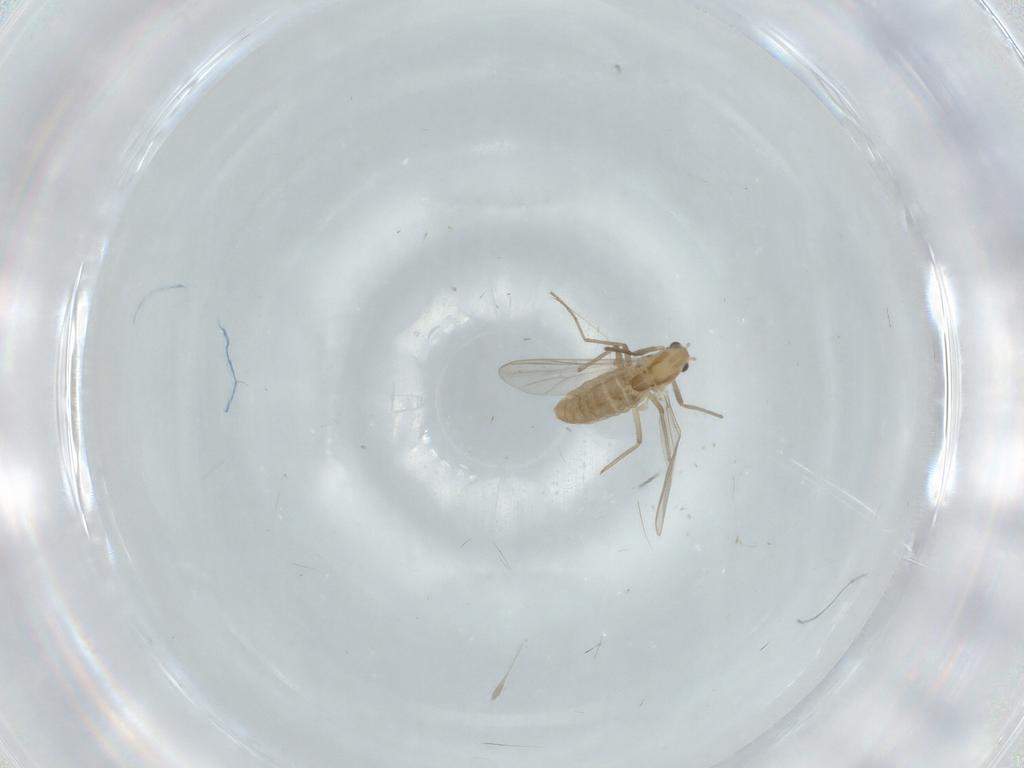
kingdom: Animalia
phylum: Arthropoda
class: Insecta
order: Diptera
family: Chironomidae
